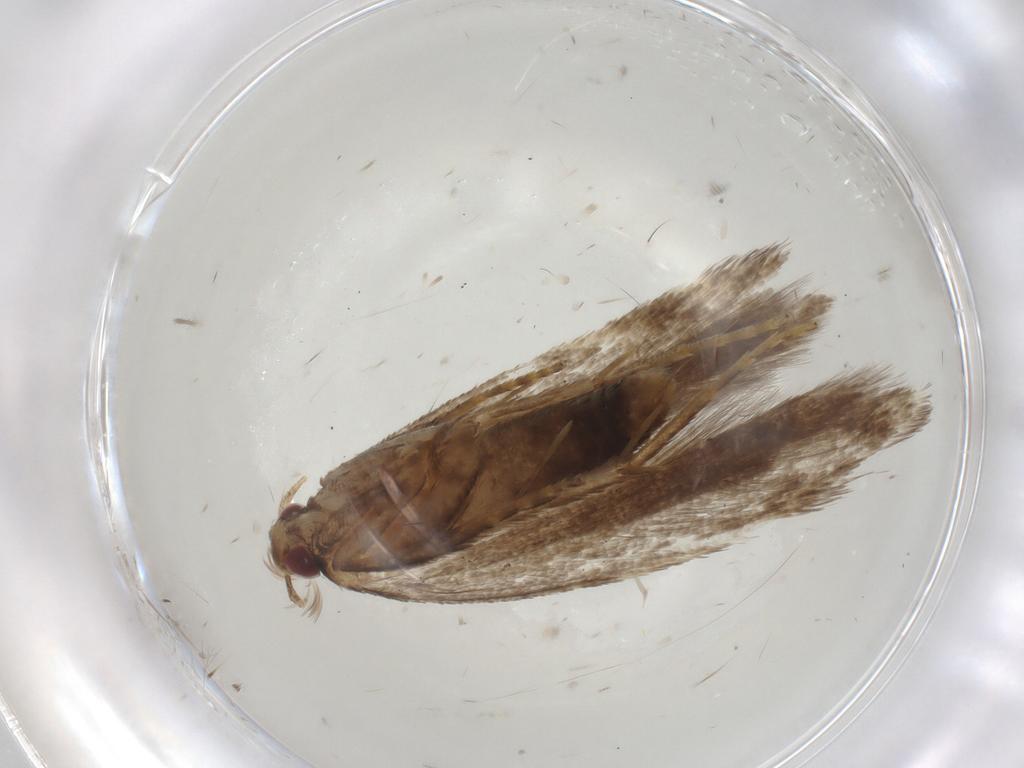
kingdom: Animalia
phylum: Arthropoda
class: Insecta
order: Lepidoptera
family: Gelechiidae
